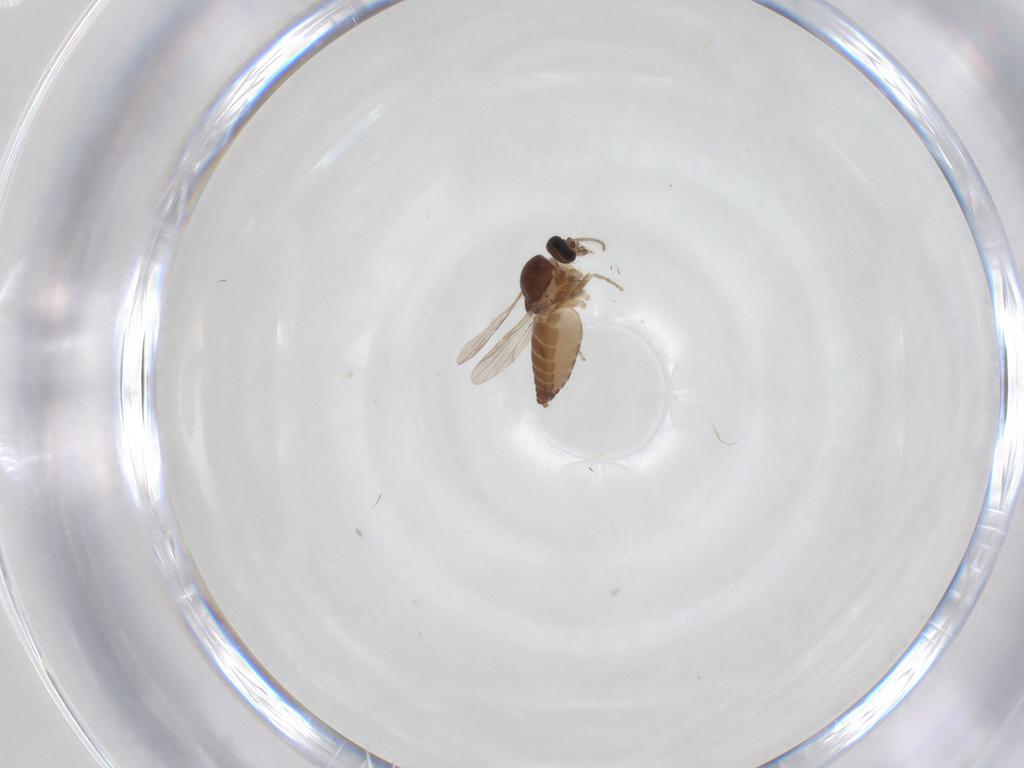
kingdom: Animalia
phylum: Arthropoda
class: Insecta
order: Diptera
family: Ceratopogonidae
